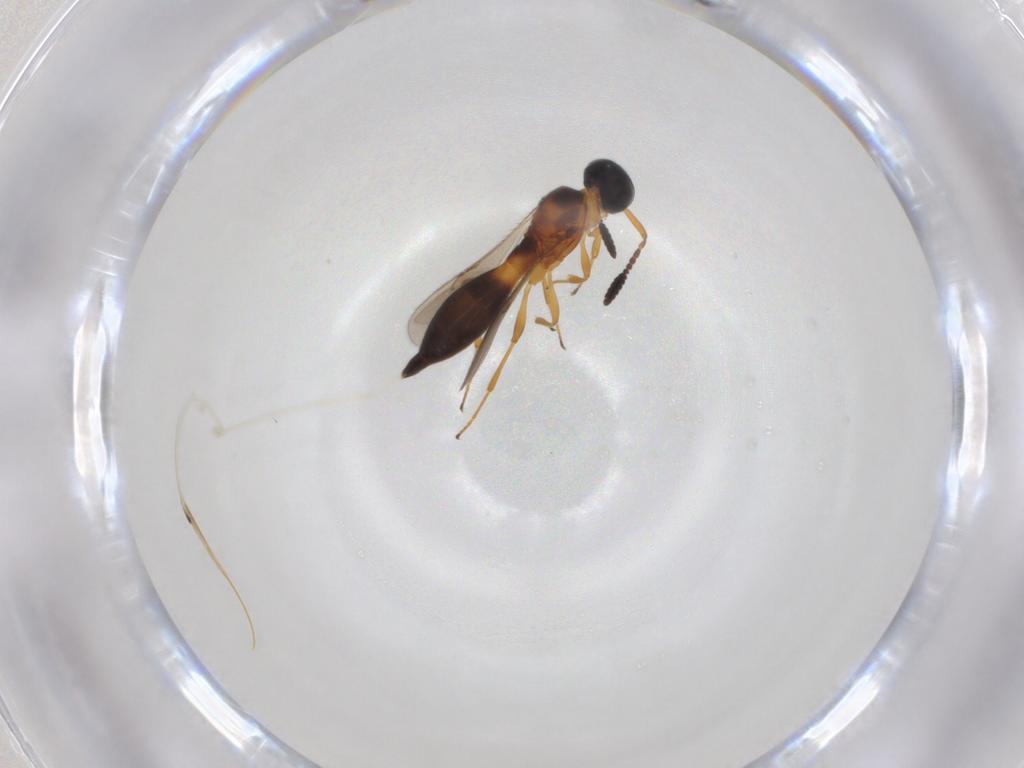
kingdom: Animalia
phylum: Arthropoda
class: Insecta
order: Hymenoptera
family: Scelionidae
